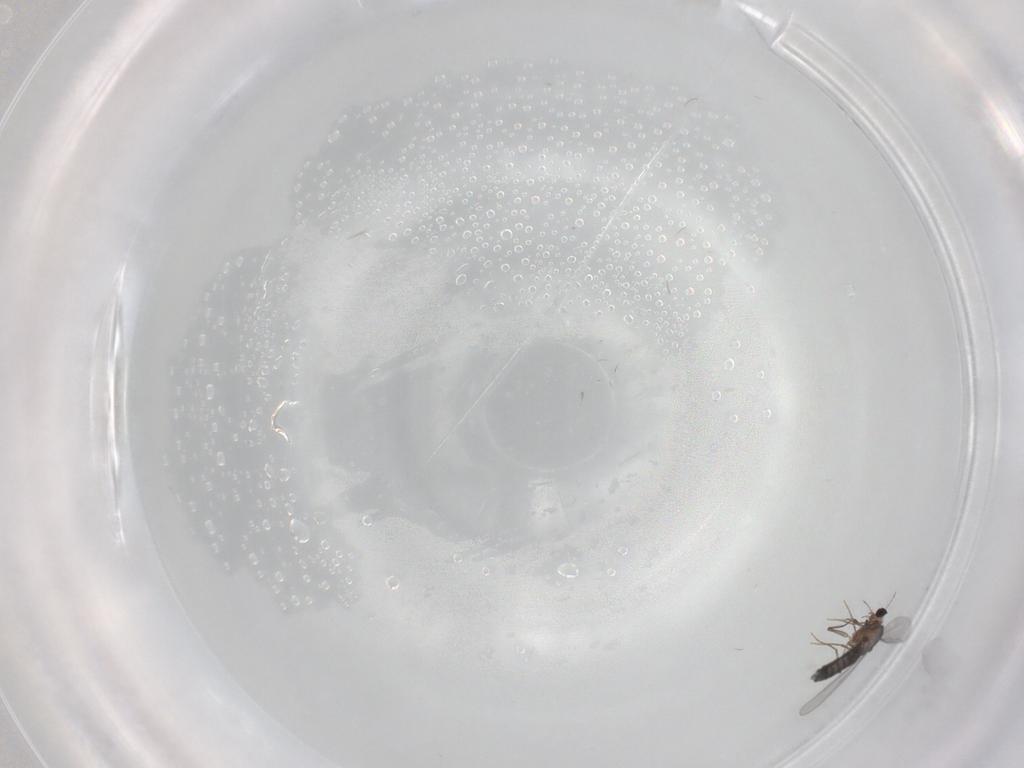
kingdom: Animalia
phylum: Arthropoda
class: Insecta
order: Diptera
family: Chironomidae
